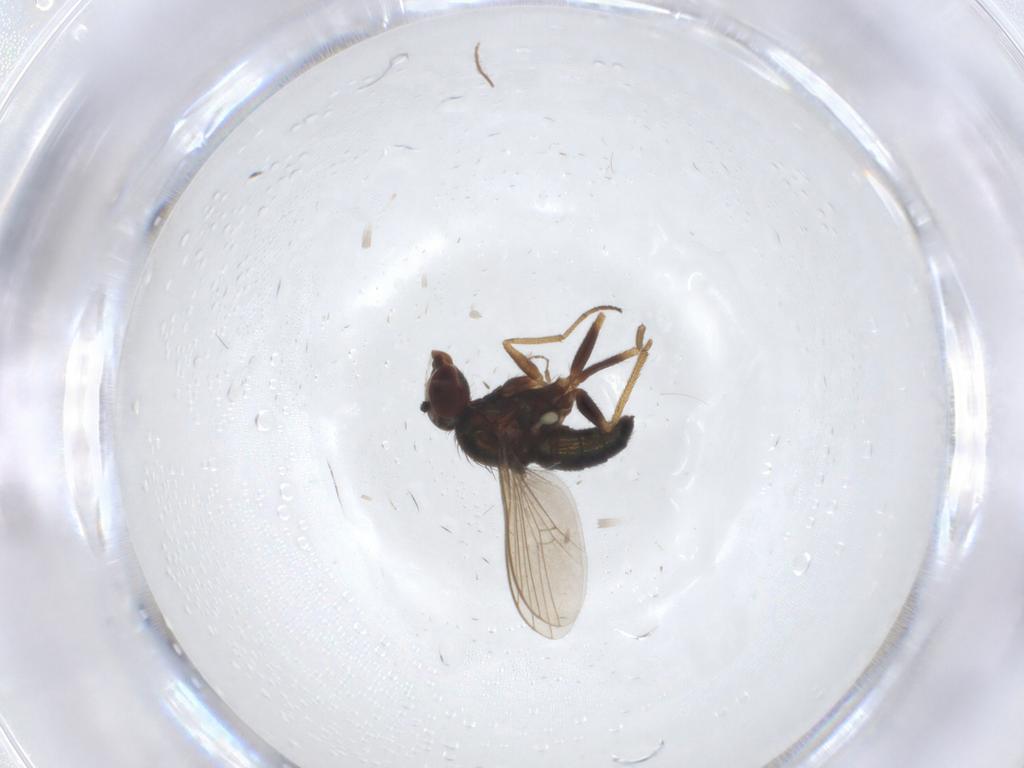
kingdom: Animalia
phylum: Arthropoda
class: Insecta
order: Diptera
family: Dolichopodidae
